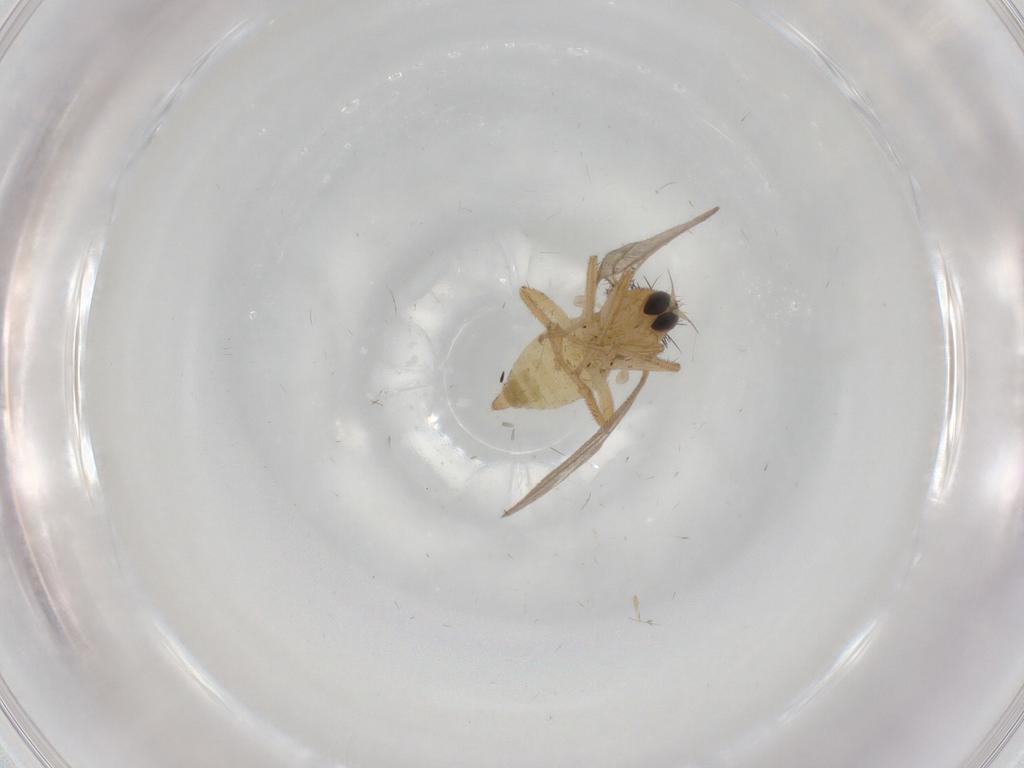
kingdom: Animalia
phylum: Arthropoda
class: Insecta
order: Diptera
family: Hybotidae
